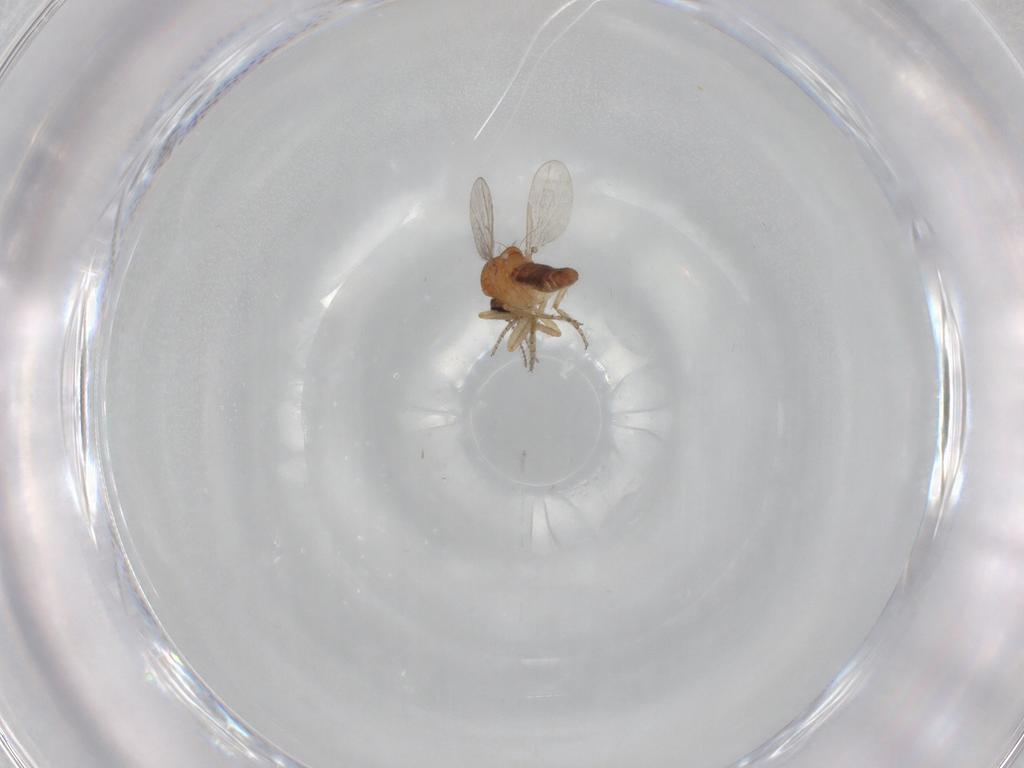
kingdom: Animalia
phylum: Arthropoda
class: Insecta
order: Diptera
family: Ceratopogonidae
